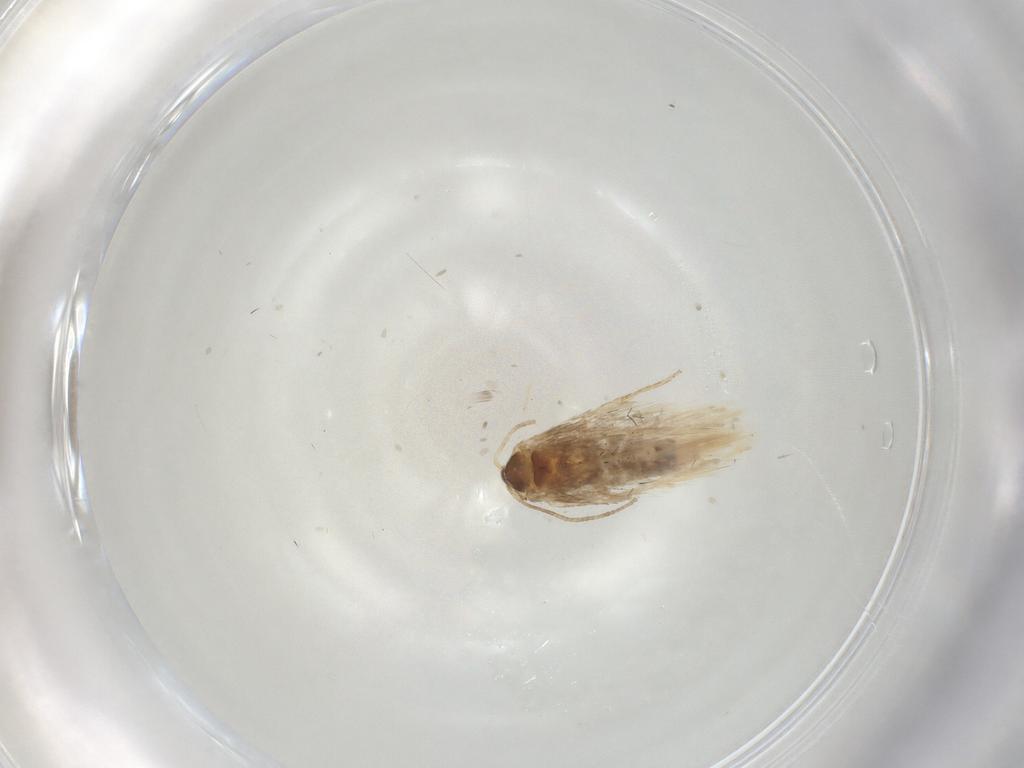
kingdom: Animalia
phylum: Arthropoda
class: Insecta
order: Lepidoptera
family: Nepticulidae
